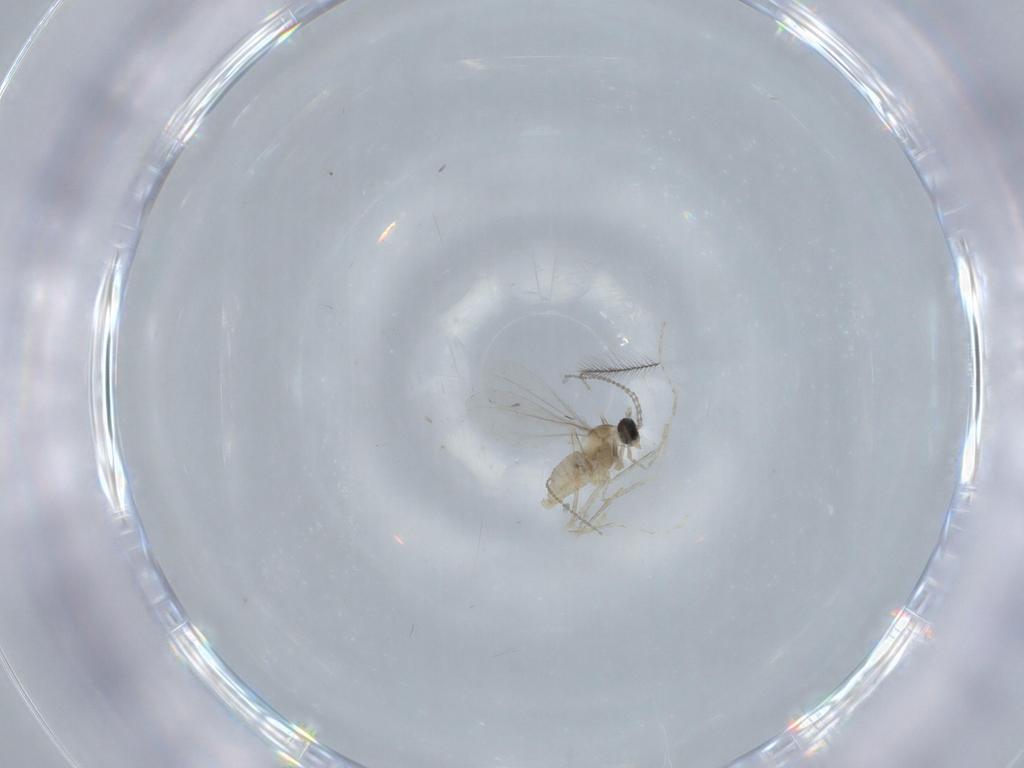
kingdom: Animalia
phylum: Arthropoda
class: Insecta
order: Diptera
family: Cecidomyiidae
